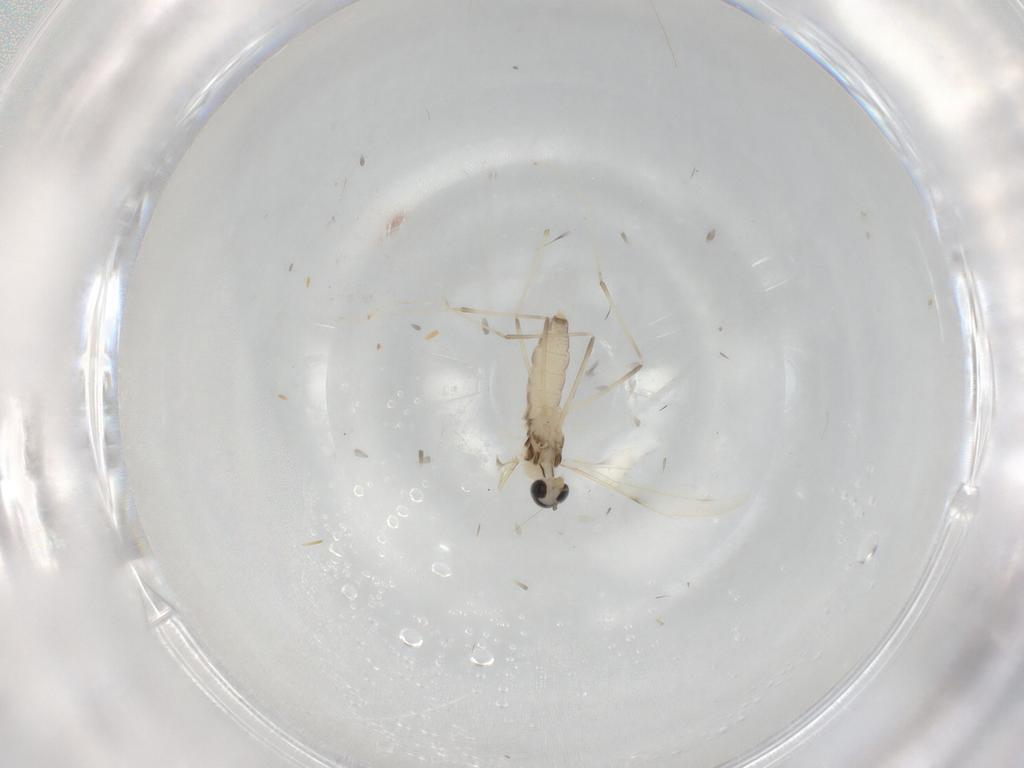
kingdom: Animalia
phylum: Arthropoda
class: Insecta
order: Diptera
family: Cecidomyiidae
